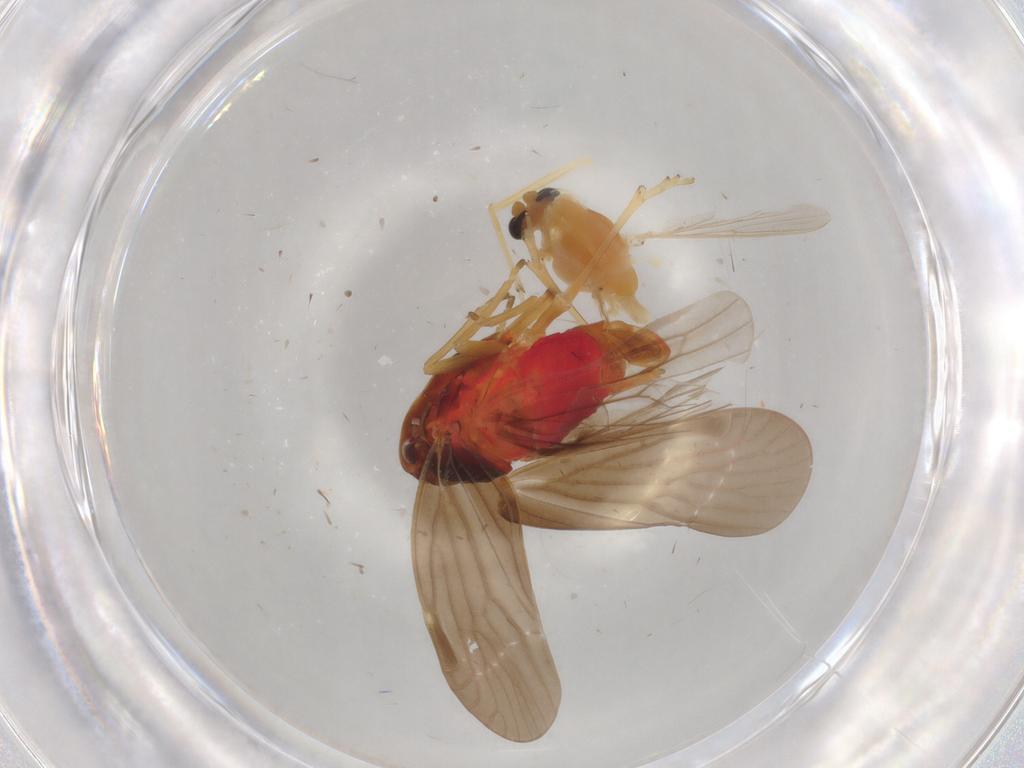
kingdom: Animalia
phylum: Arthropoda
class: Insecta
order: Diptera
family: Chironomidae
